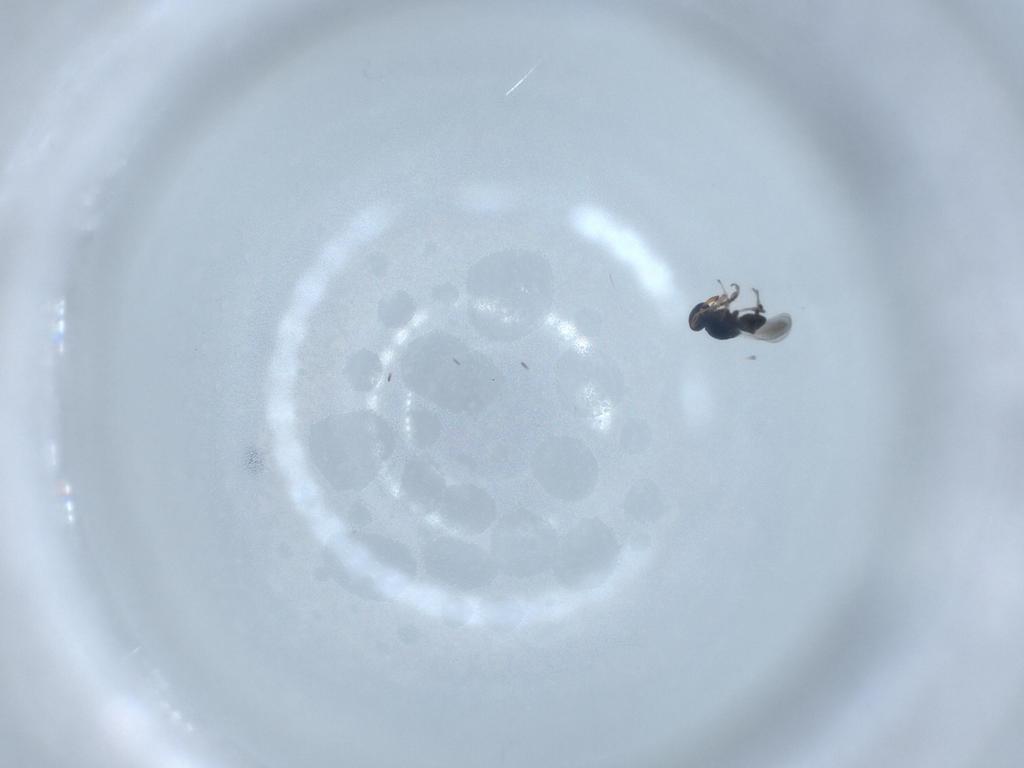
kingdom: Animalia
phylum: Arthropoda
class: Insecta
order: Hymenoptera
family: Platygastridae
